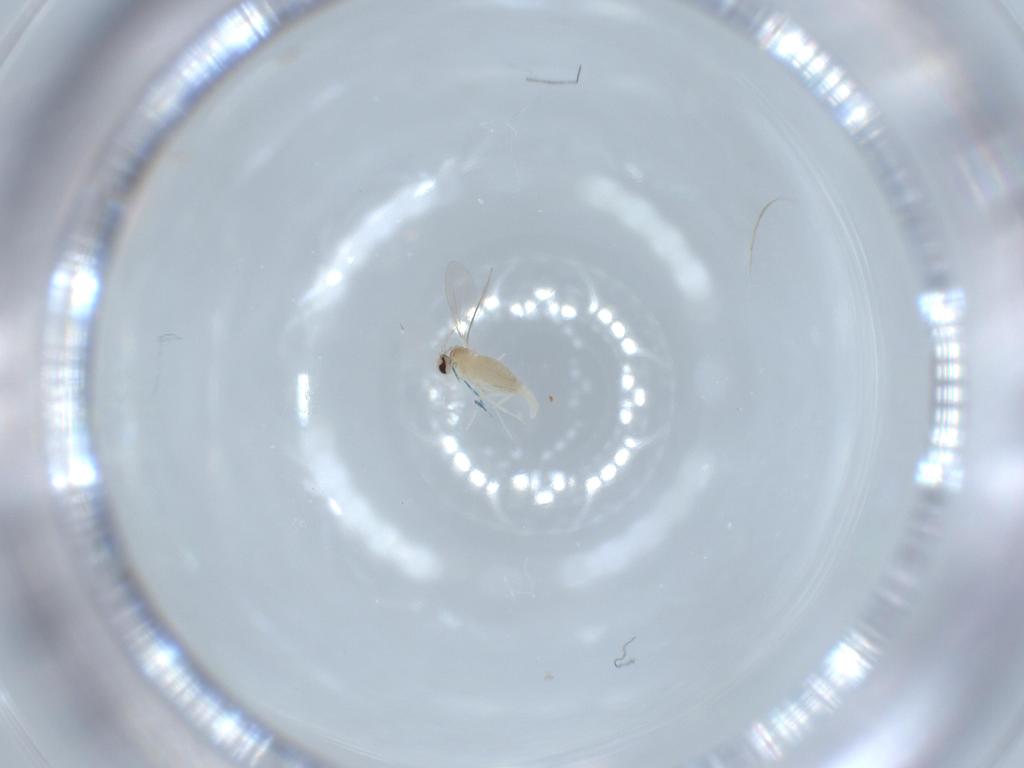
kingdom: Animalia
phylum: Arthropoda
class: Insecta
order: Diptera
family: Cecidomyiidae
